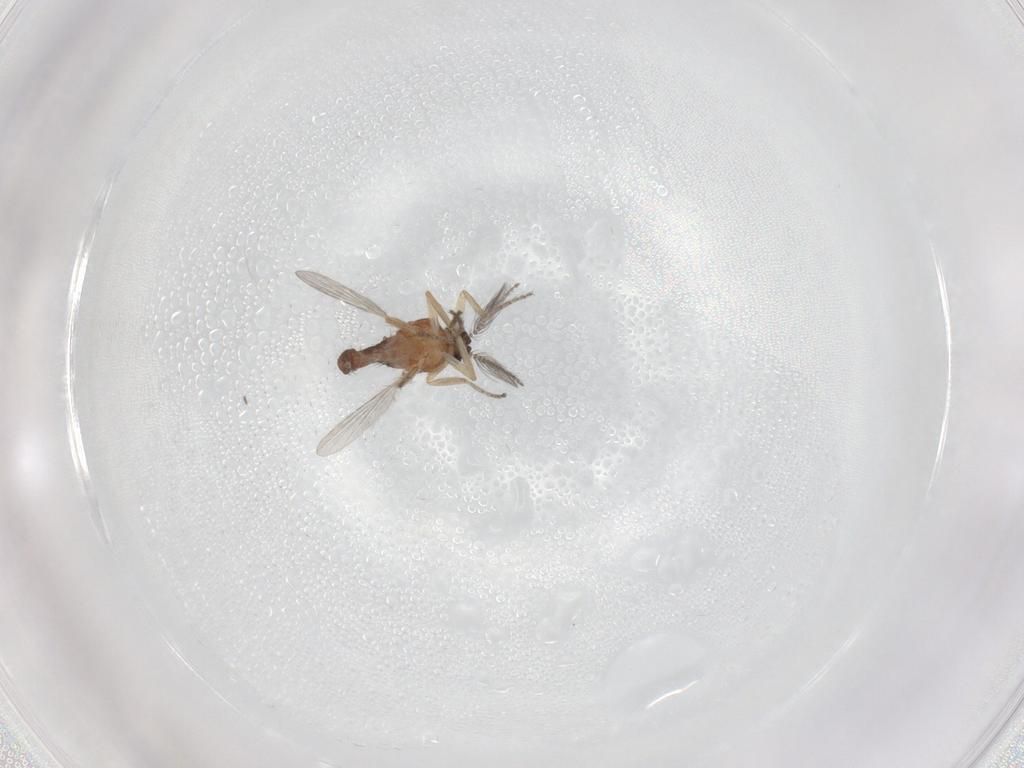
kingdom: Animalia
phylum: Arthropoda
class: Insecta
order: Diptera
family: Ceratopogonidae
